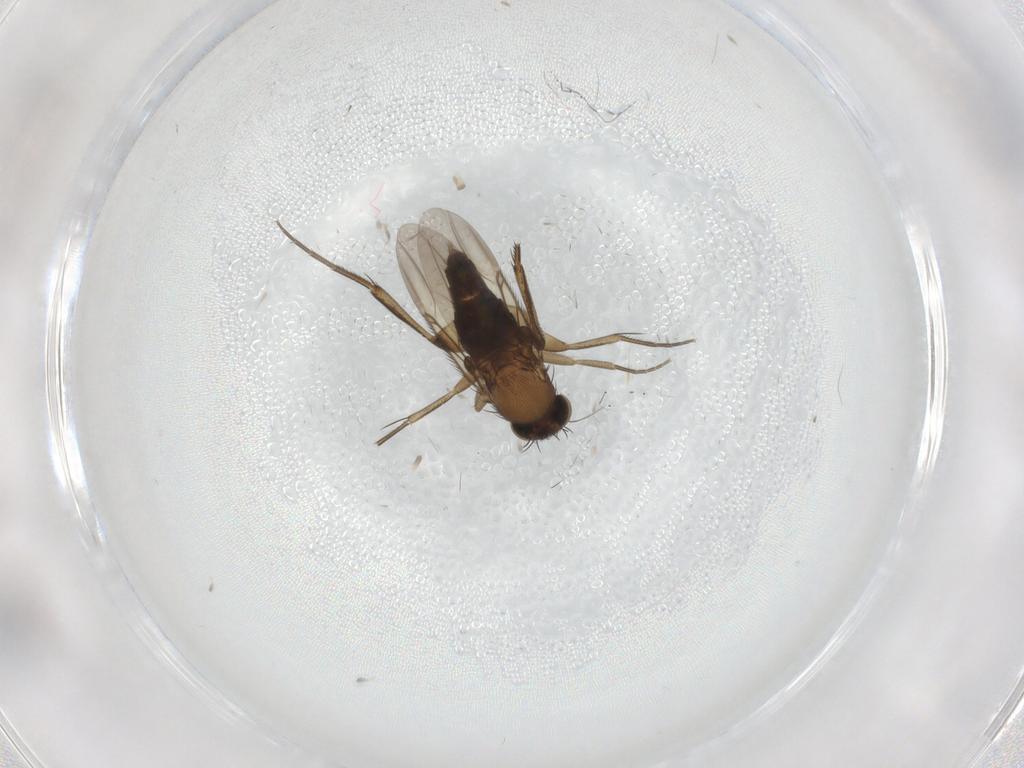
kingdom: Animalia
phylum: Arthropoda
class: Insecta
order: Diptera
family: Phoridae
